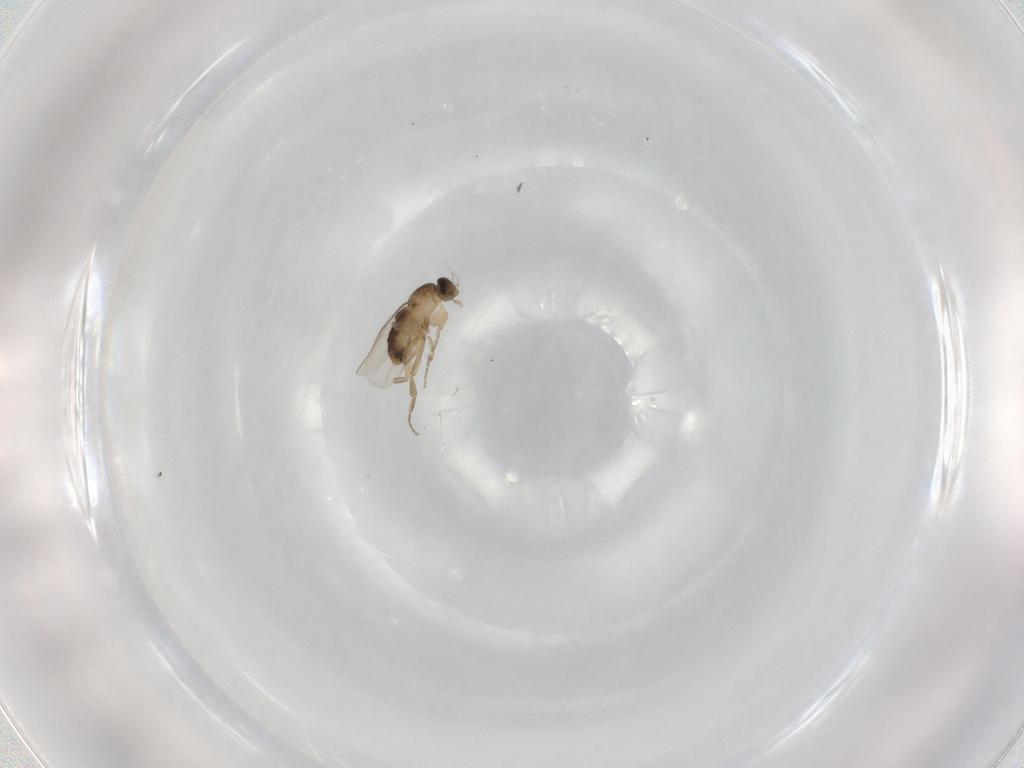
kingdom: Animalia
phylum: Arthropoda
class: Insecta
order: Diptera
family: Phoridae
